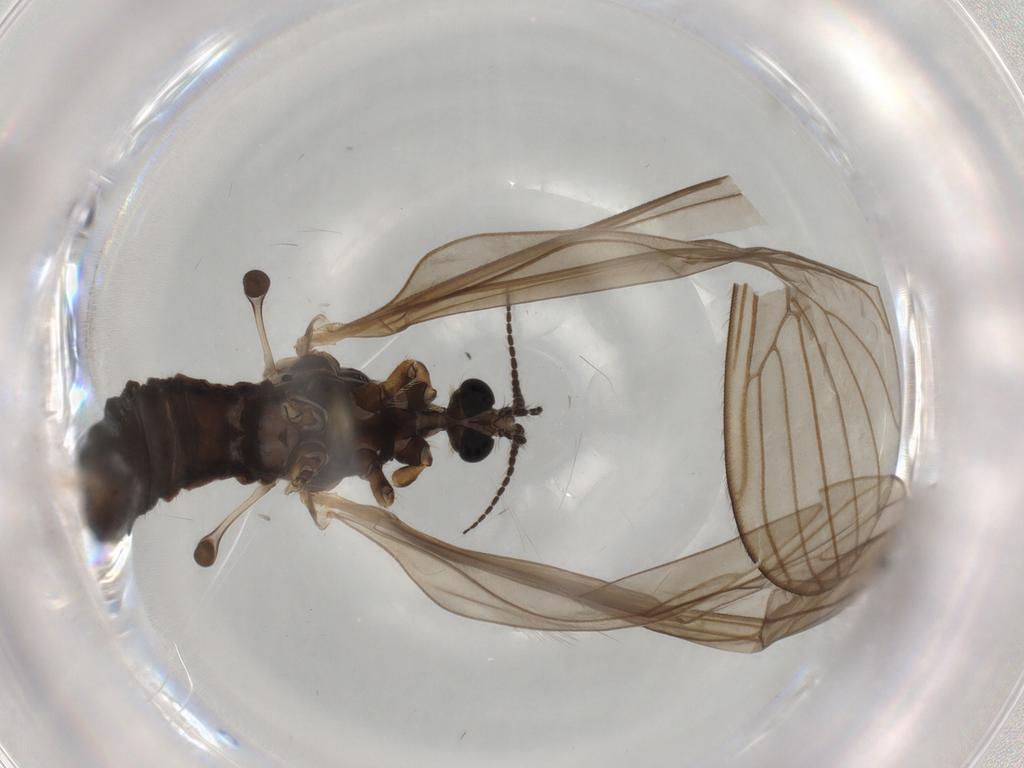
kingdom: Animalia
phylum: Arthropoda
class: Insecta
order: Diptera
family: Limoniidae
